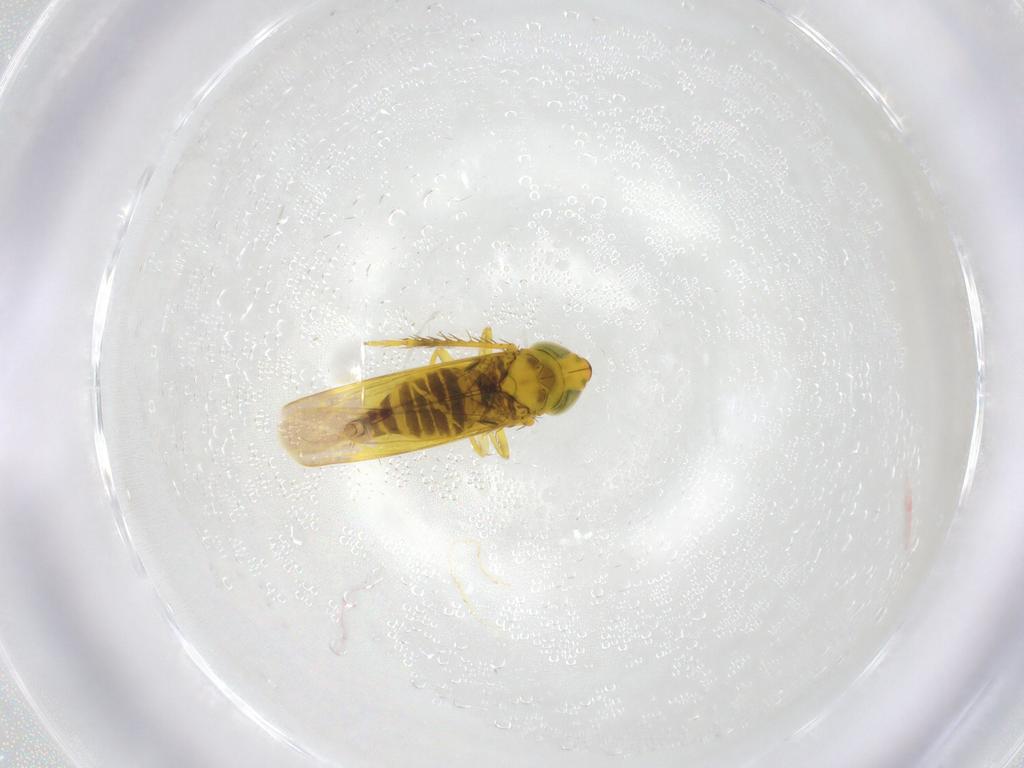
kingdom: Animalia
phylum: Arthropoda
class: Insecta
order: Hemiptera
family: Cicadellidae
